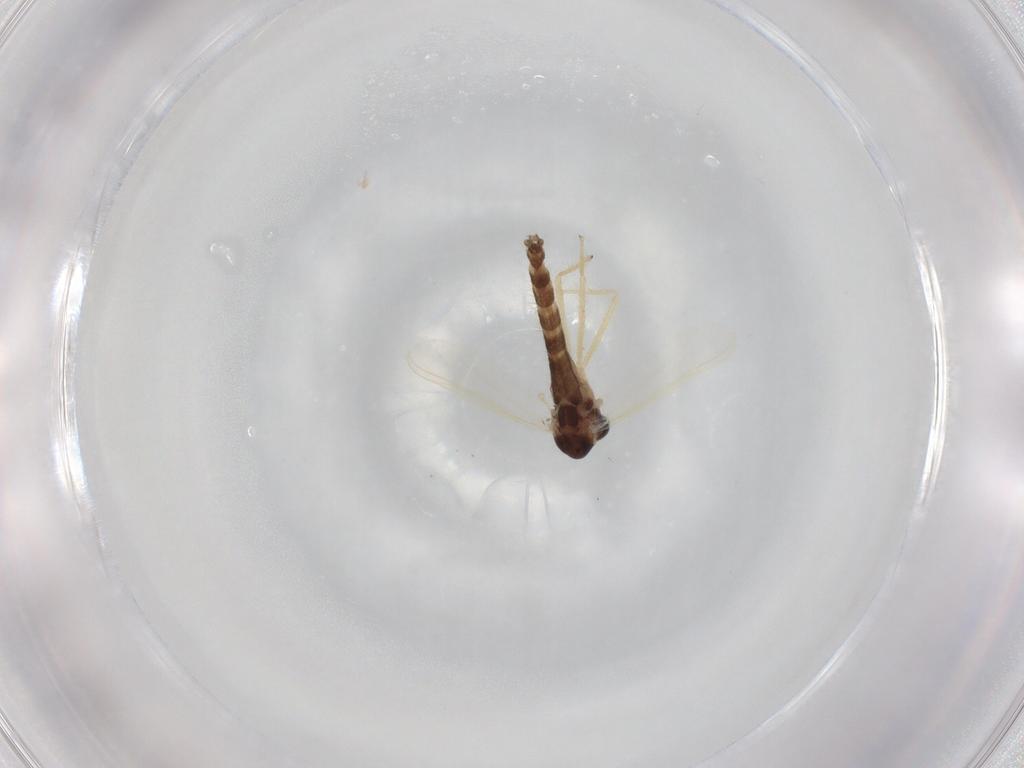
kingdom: Animalia
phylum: Arthropoda
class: Insecta
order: Diptera
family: Chironomidae
